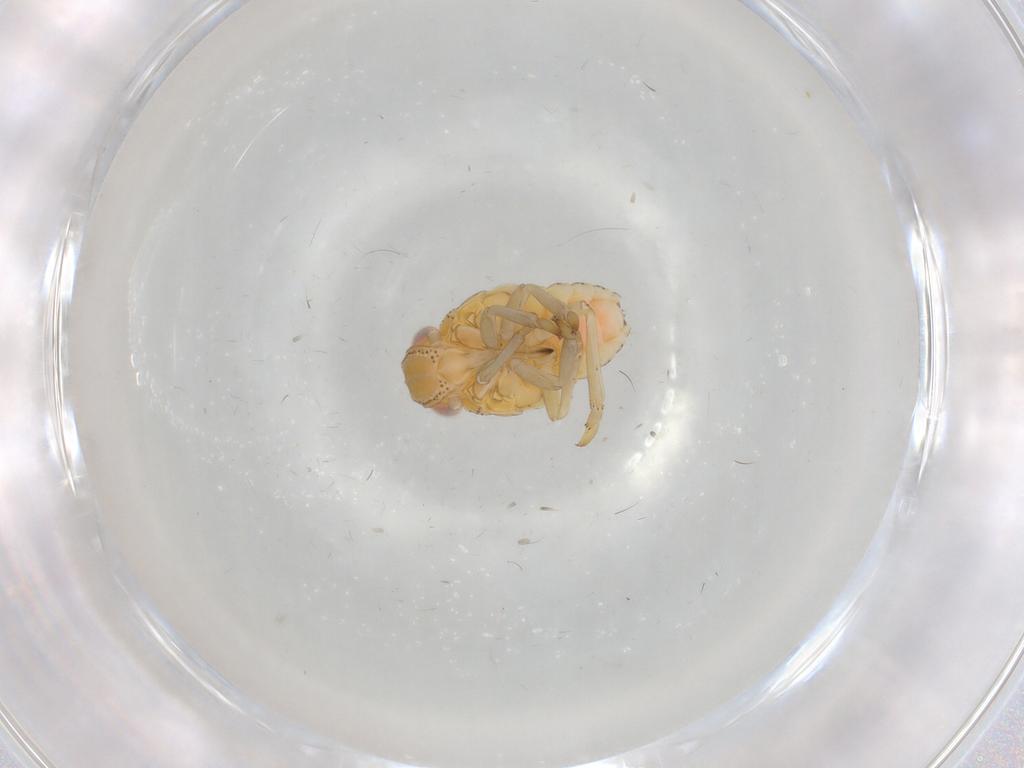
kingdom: Animalia
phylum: Arthropoda
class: Insecta
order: Hemiptera
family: Tropiduchidae
